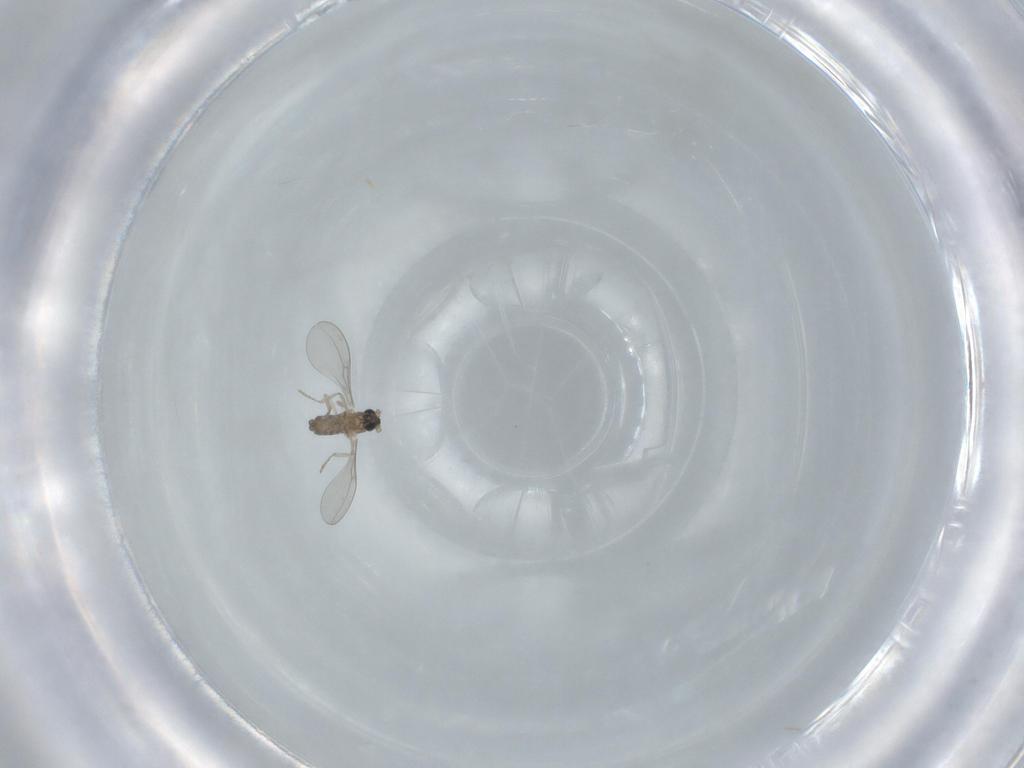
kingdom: Animalia
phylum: Arthropoda
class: Insecta
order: Diptera
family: Cecidomyiidae
